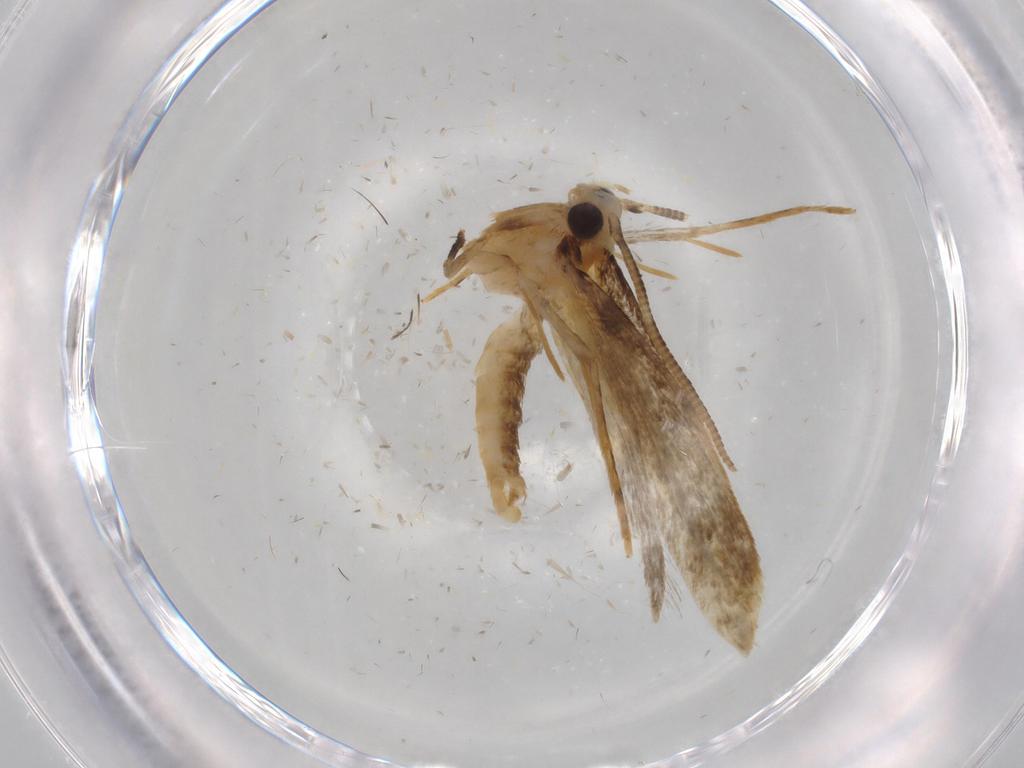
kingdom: Animalia
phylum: Arthropoda
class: Insecta
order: Lepidoptera
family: Tineidae
